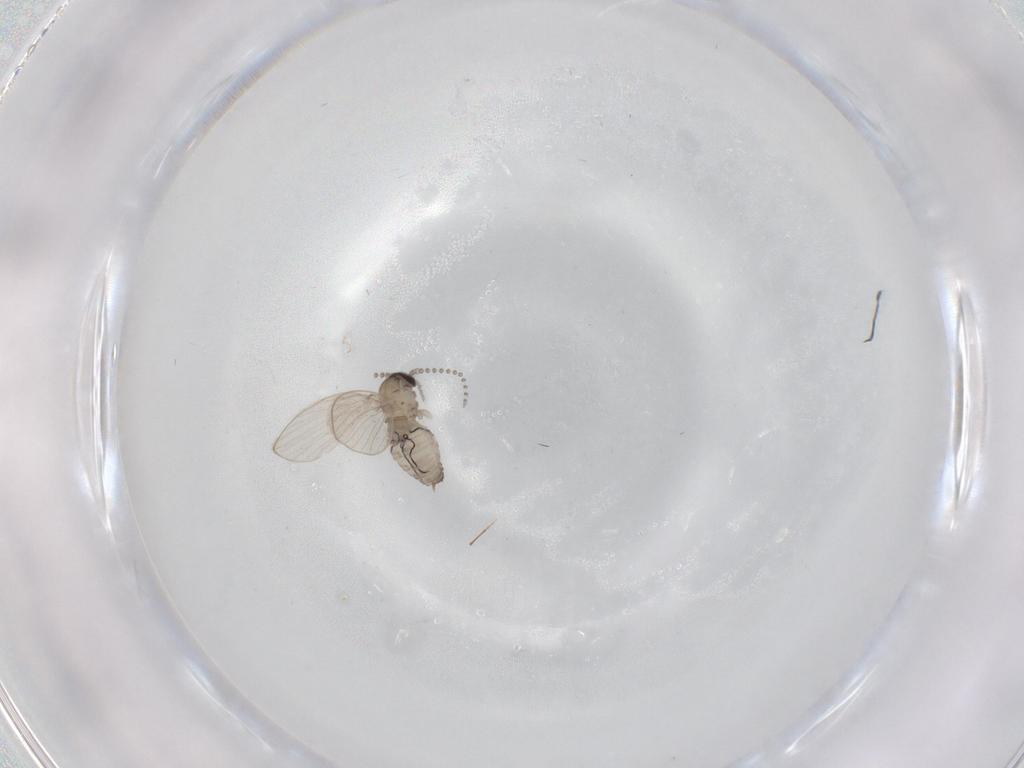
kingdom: Animalia
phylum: Arthropoda
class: Insecta
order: Diptera
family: Psychodidae
